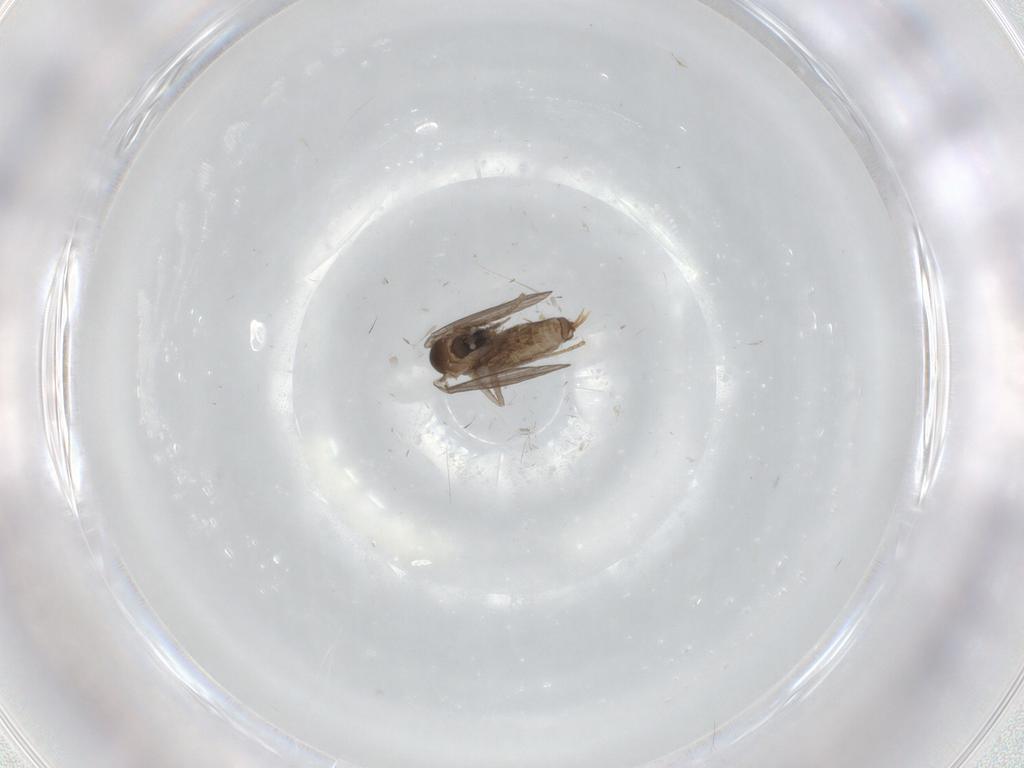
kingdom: Animalia
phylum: Arthropoda
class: Insecta
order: Diptera
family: Psychodidae
